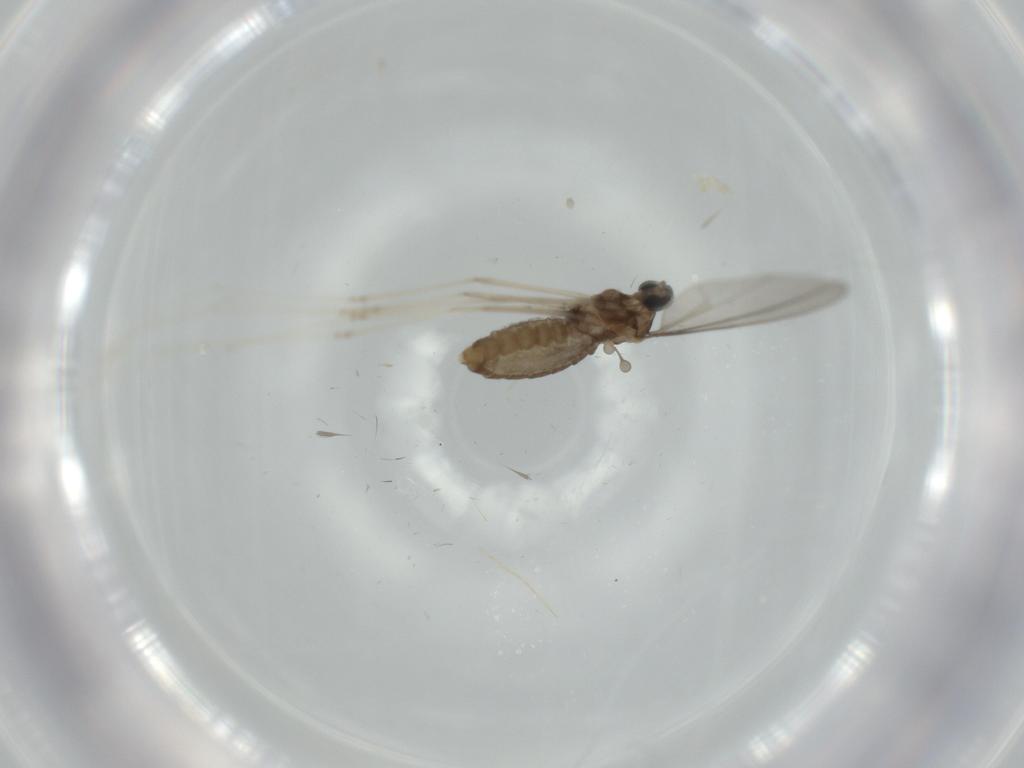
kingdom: Animalia
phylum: Arthropoda
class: Insecta
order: Diptera
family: Cecidomyiidae
